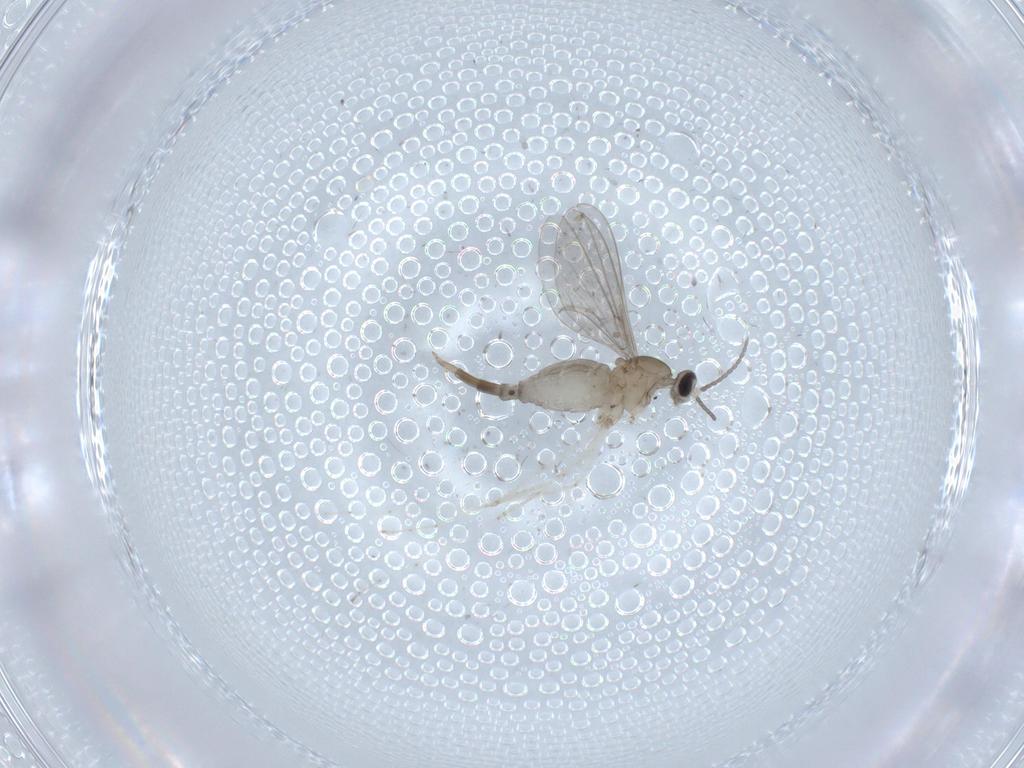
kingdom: Animalia
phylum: Arthropoda
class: Insecta
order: Diptera
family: Cecidomyiidae
